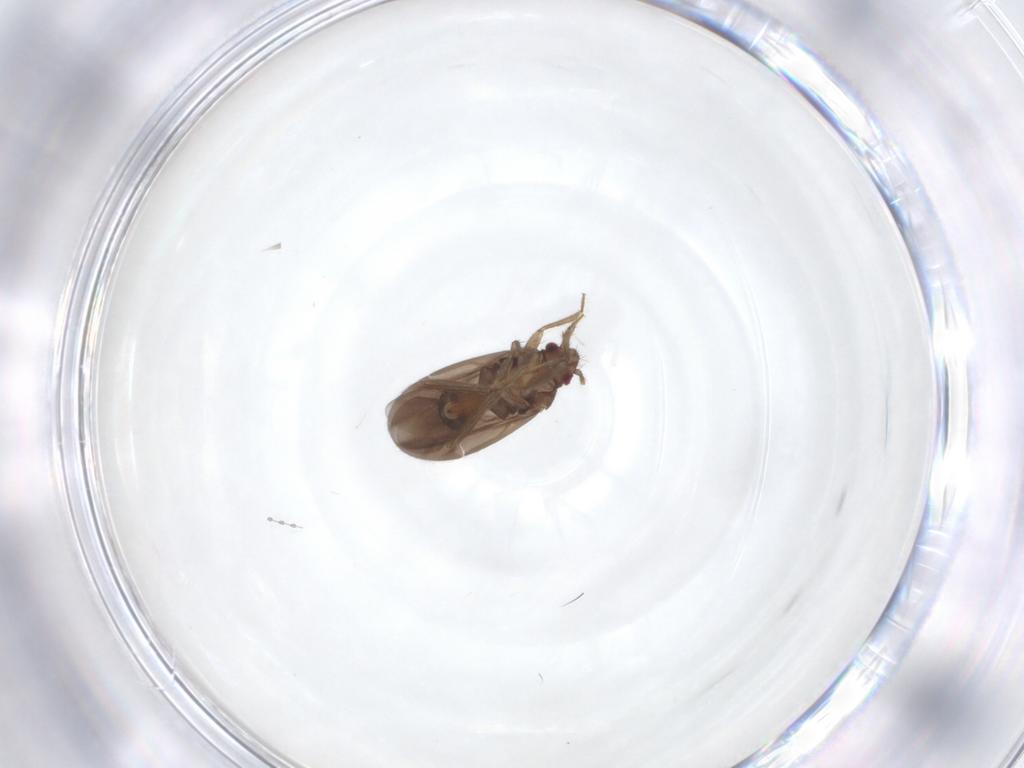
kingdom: Animalia
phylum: Arthropoda
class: Insecta
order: Hemiptera
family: Ceratocombidae
